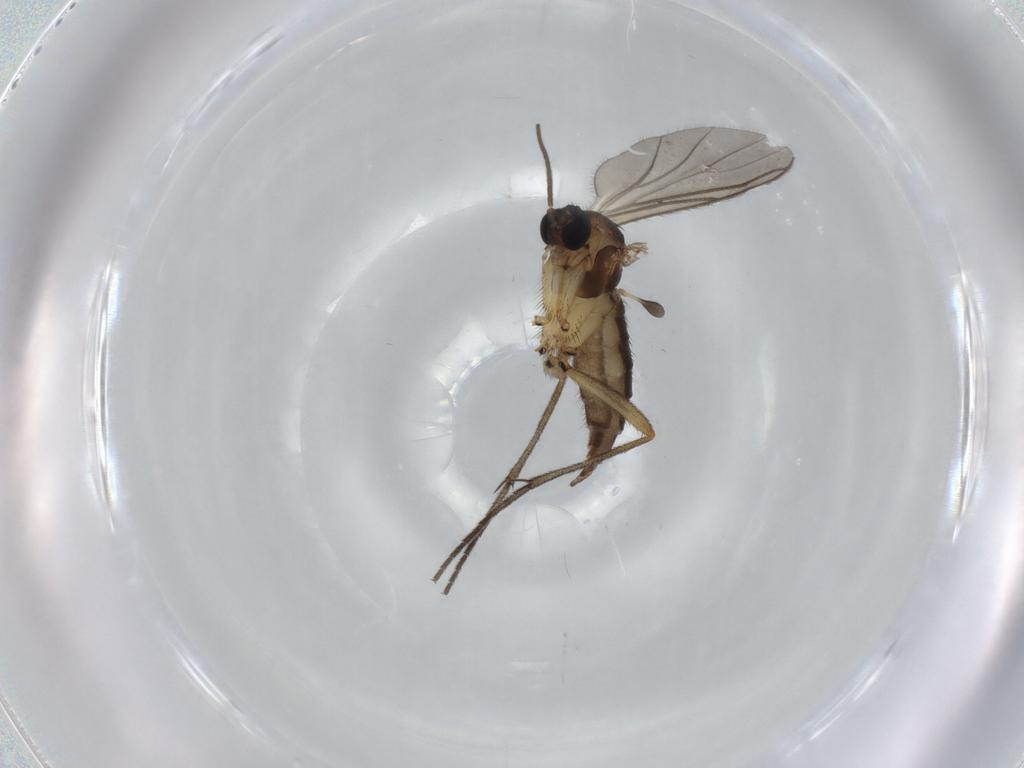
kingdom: Animalia
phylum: Arthropoda
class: Insecta
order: Diptera
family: Sciaridae
